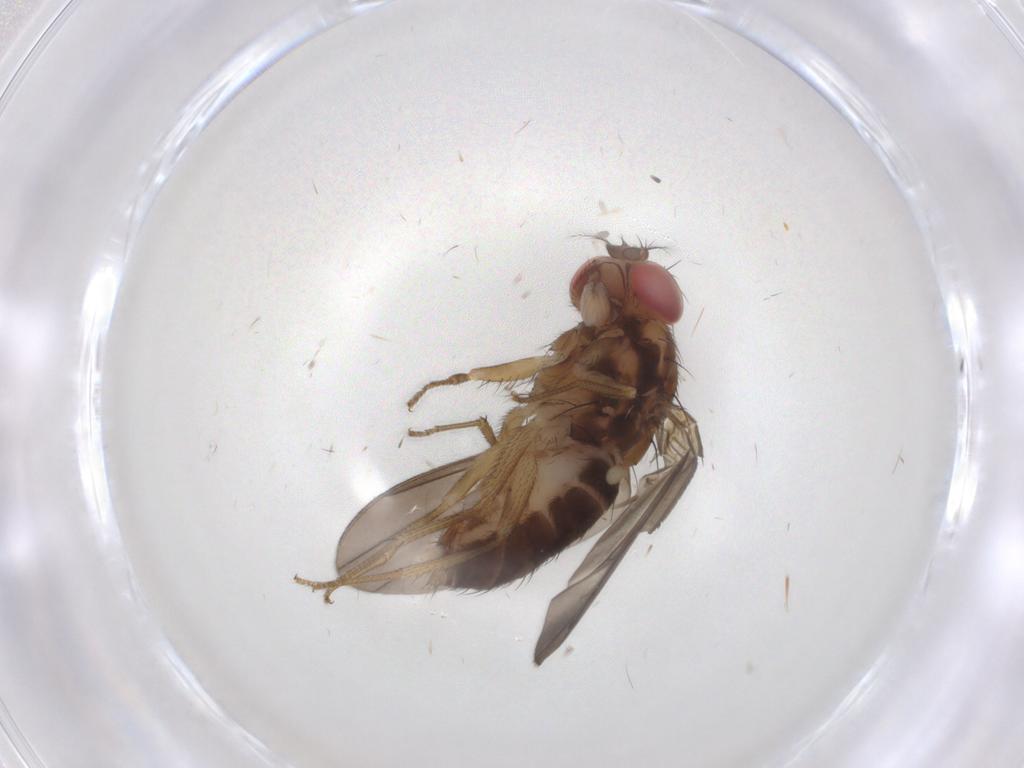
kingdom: Animalia
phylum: Arthropoda
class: Insecta
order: Diptera
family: Drosophilidae
